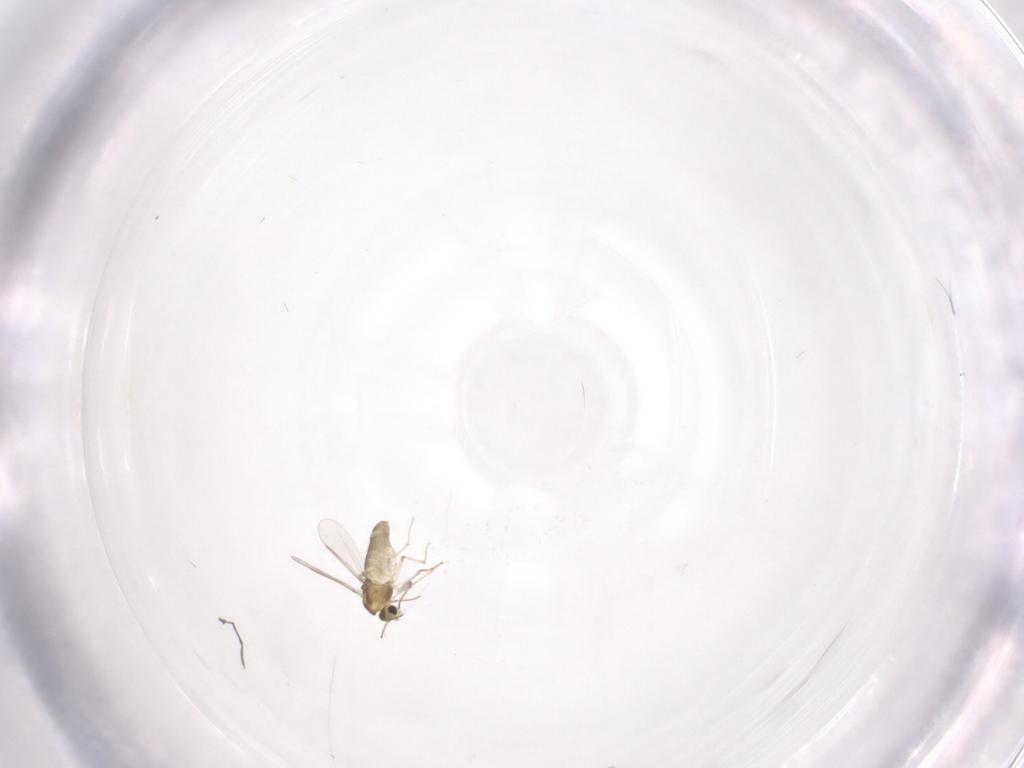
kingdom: Animalia
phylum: Arthropoda
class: Insecta
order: Diptera
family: Chironomidae
